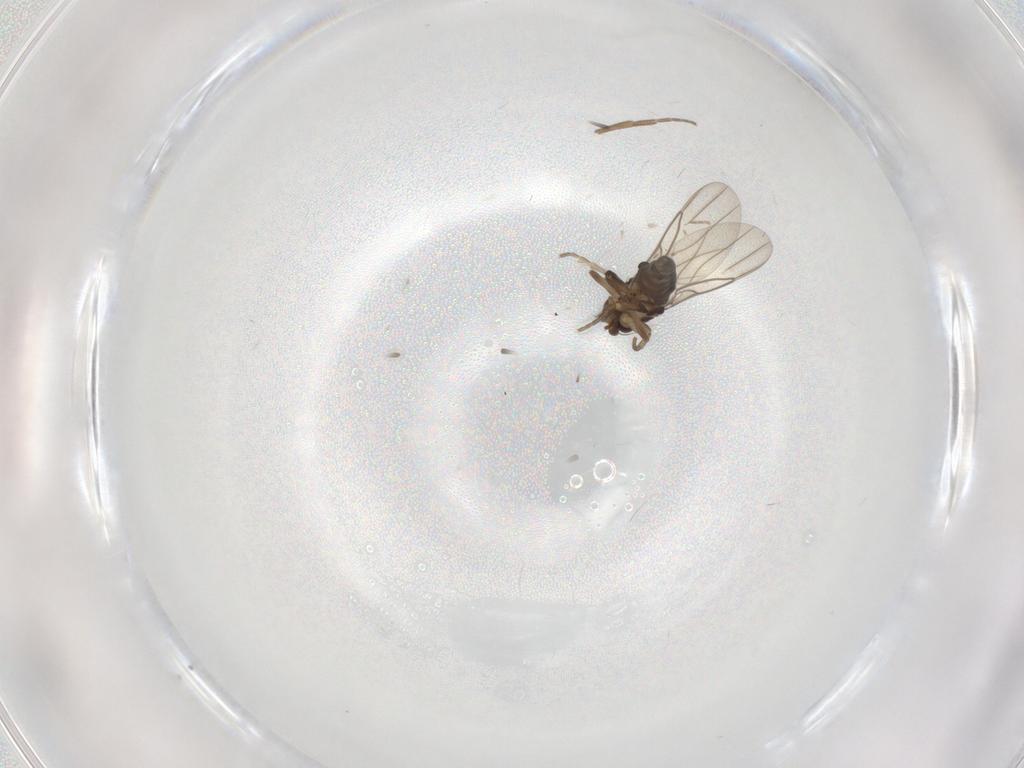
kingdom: Animalia
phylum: Arthropoda
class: Insecta
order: Diptera
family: Phoridae
